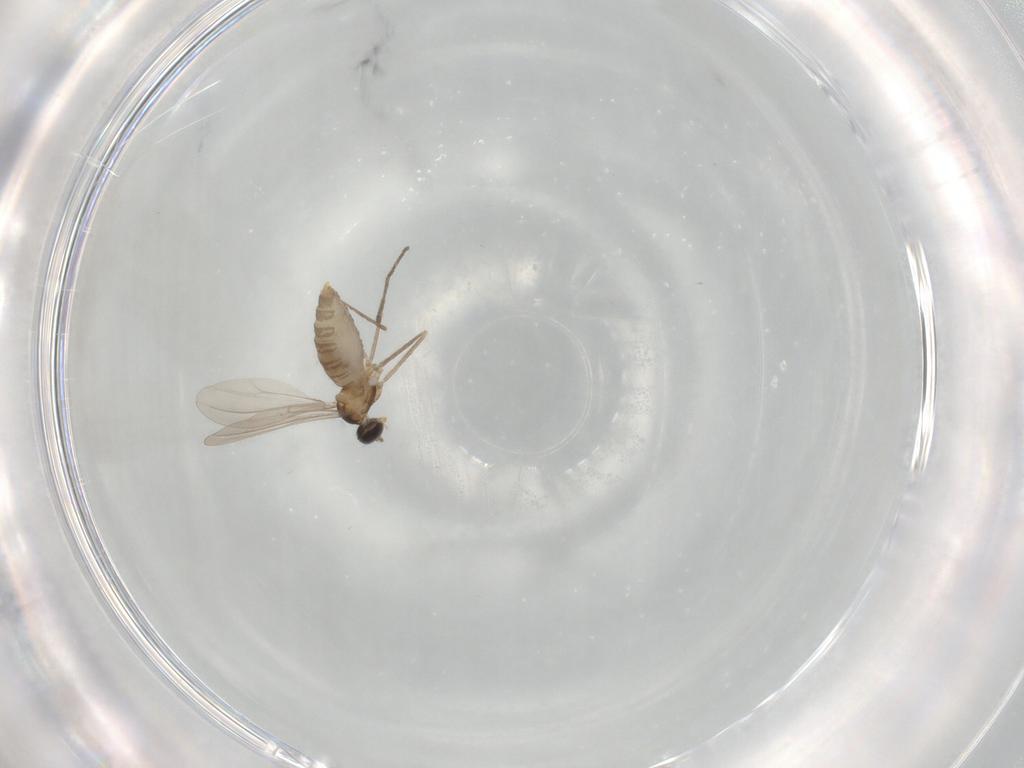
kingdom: Animalia
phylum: Arthropoda
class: Insecta
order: Diptera
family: Cecidomyiidae
